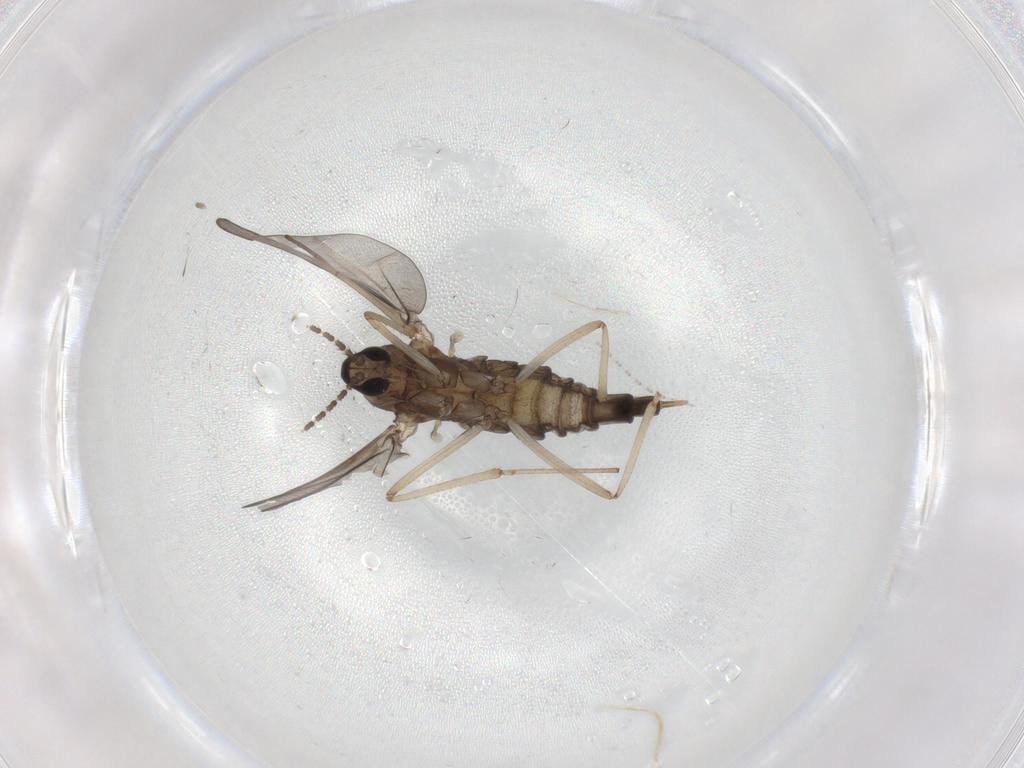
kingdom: Animalia
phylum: Arthropoda
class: Insecta
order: Diptera
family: Cecidomyiidae
